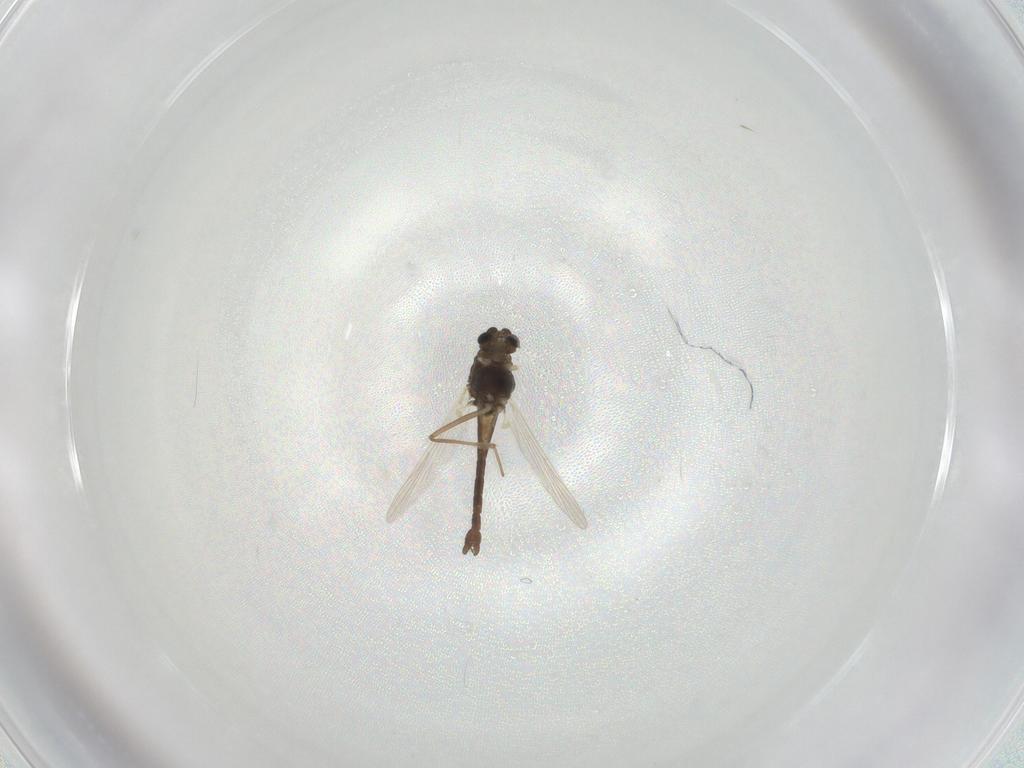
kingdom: Animalia
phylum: Arthropoda
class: Insecta
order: Diptera
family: Chironomidae
